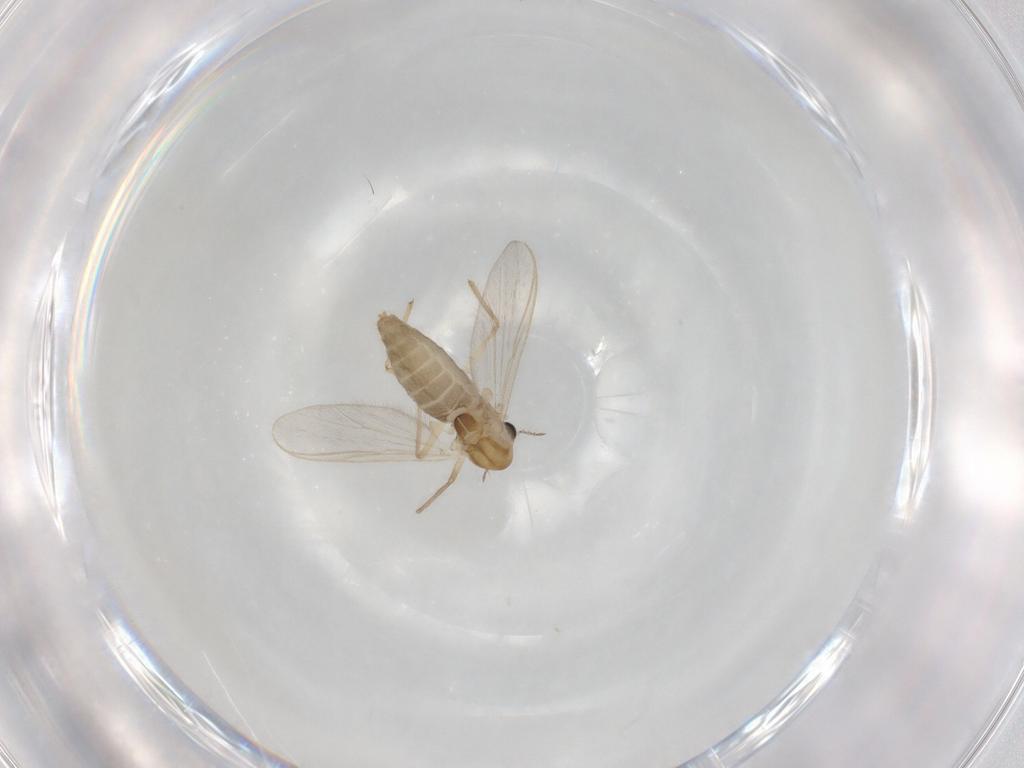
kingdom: Animalia
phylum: Arthropoda
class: Insecta
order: Diptera
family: Chironomidae
